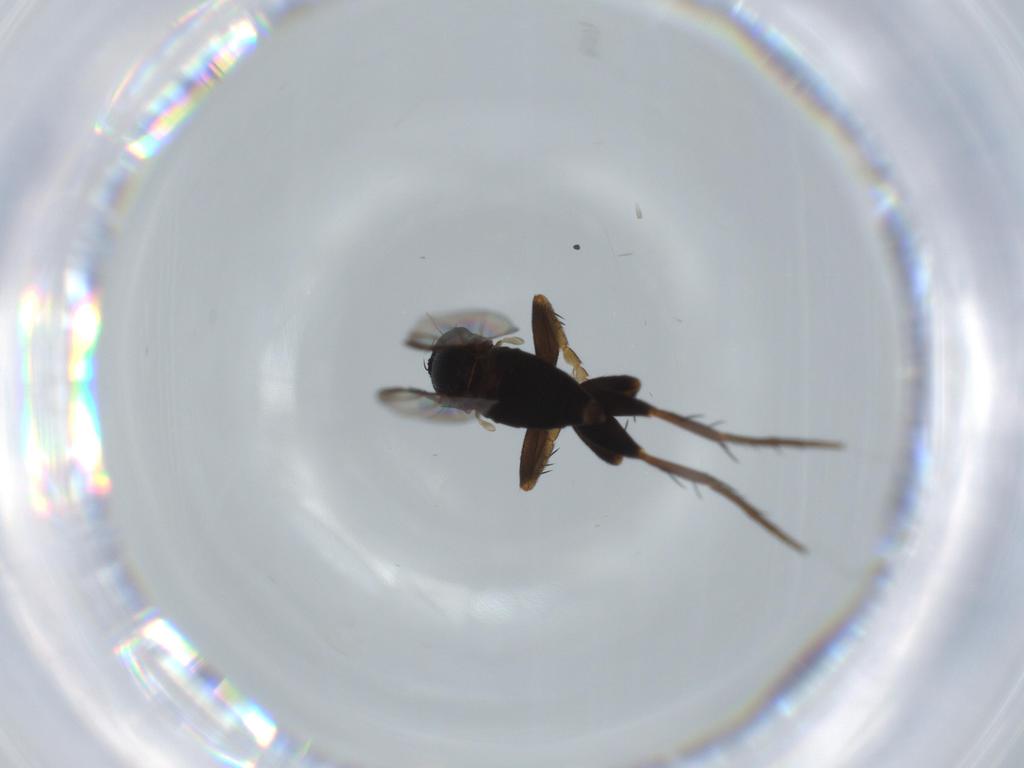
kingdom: Animalia
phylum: Arthropoda
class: Insecta
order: Diptera
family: Phoridae
